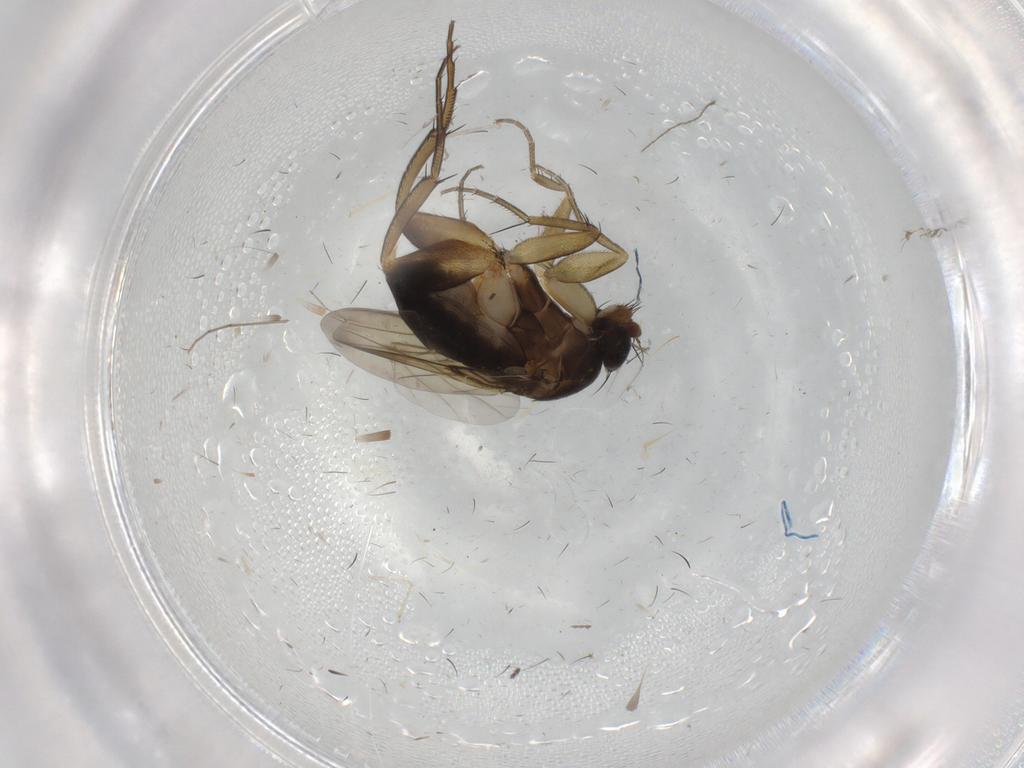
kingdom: Animalia
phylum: Arthropoda
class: Insecta
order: Diptera
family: Phoridae
